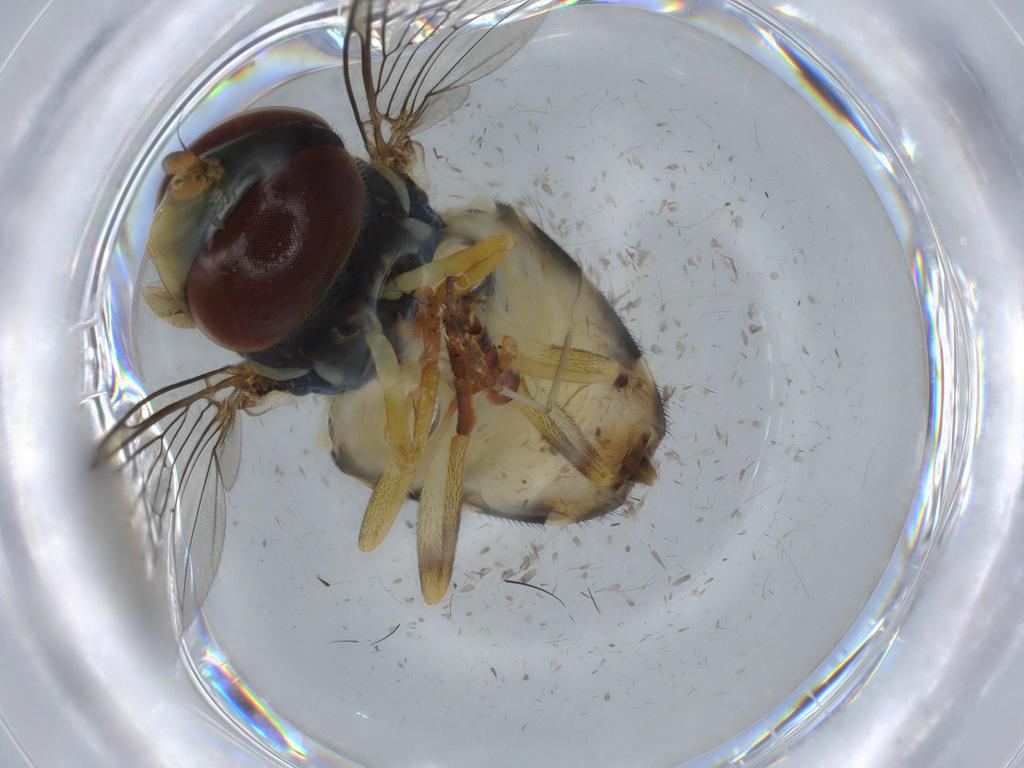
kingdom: Animalia
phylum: Arthropoda
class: Insecta
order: Diptera
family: Syrphidae
